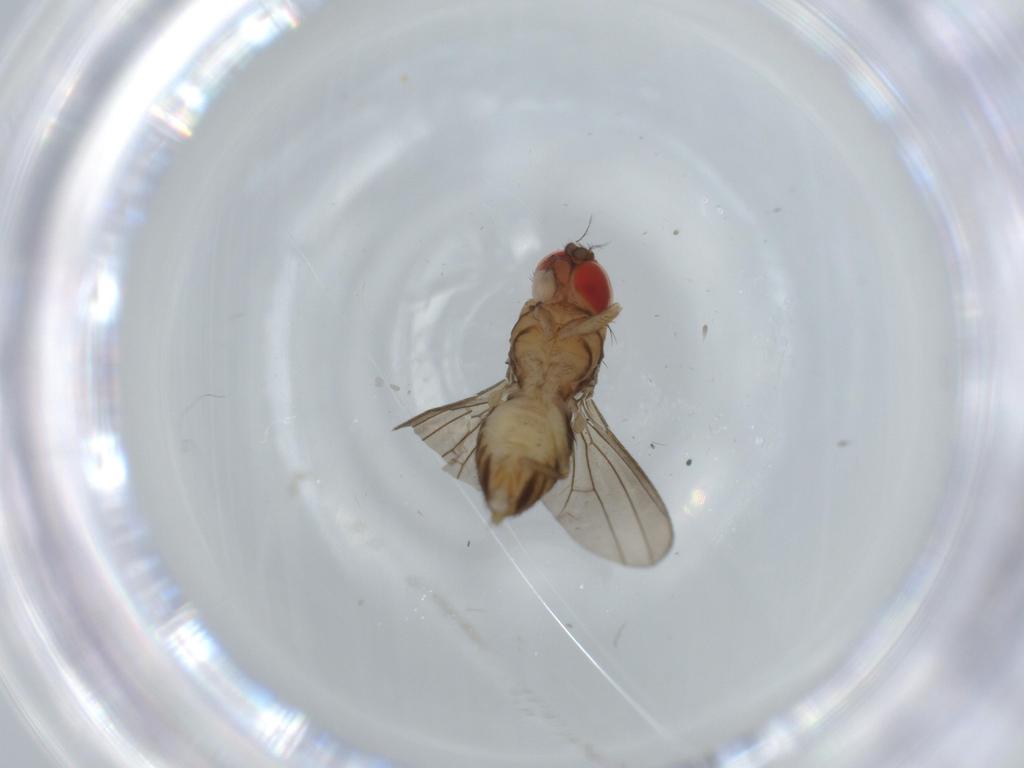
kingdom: Animalia
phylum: Arthropoda
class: Insecta
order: Diptera
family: Drosophilidae
